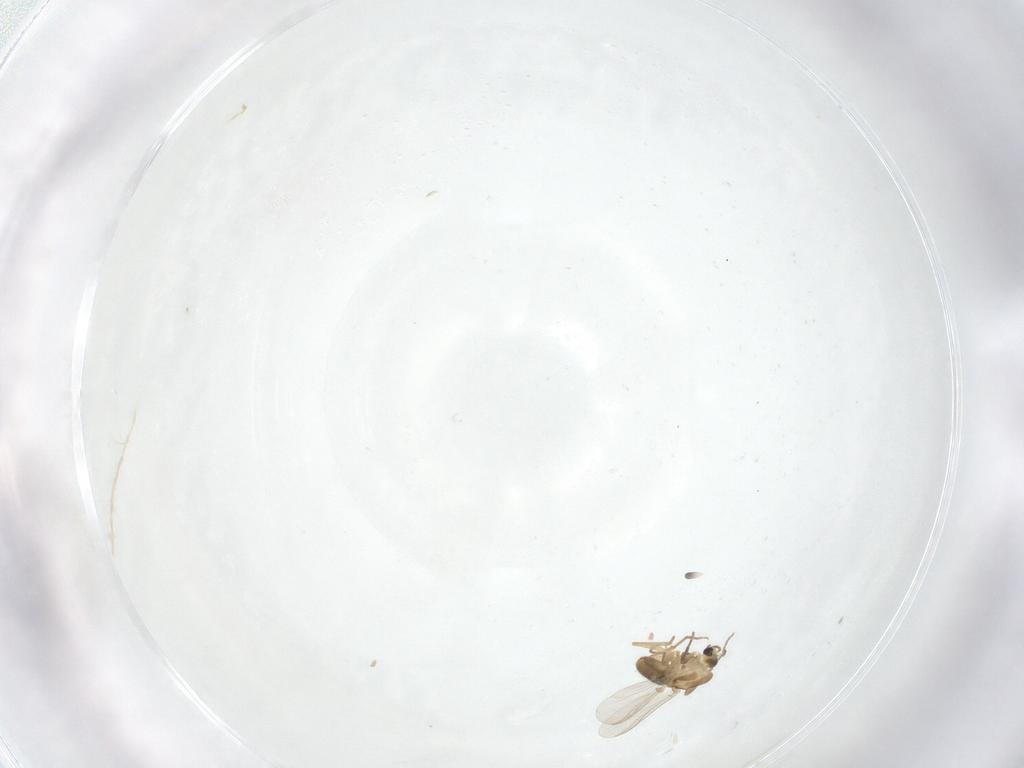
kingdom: Animalia
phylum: Arthropoda
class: Insecta
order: Diptera
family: Chironomidae
